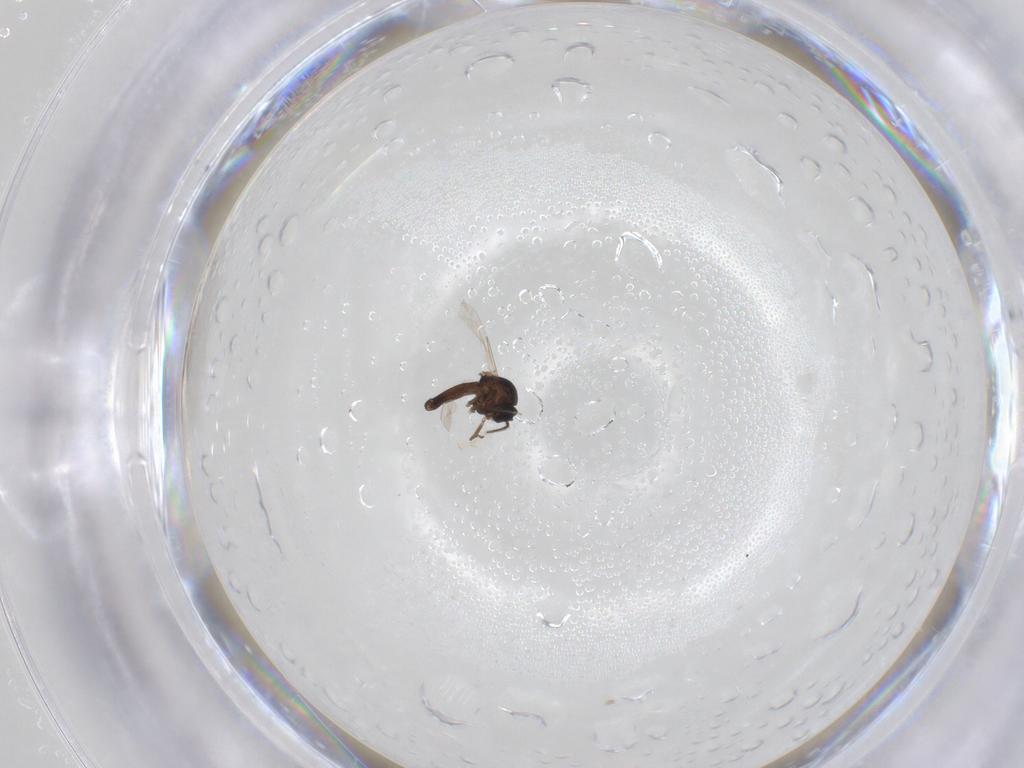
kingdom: Animalia
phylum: Arthropoda
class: Insecta
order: Diptera
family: Ceratopogonidae
